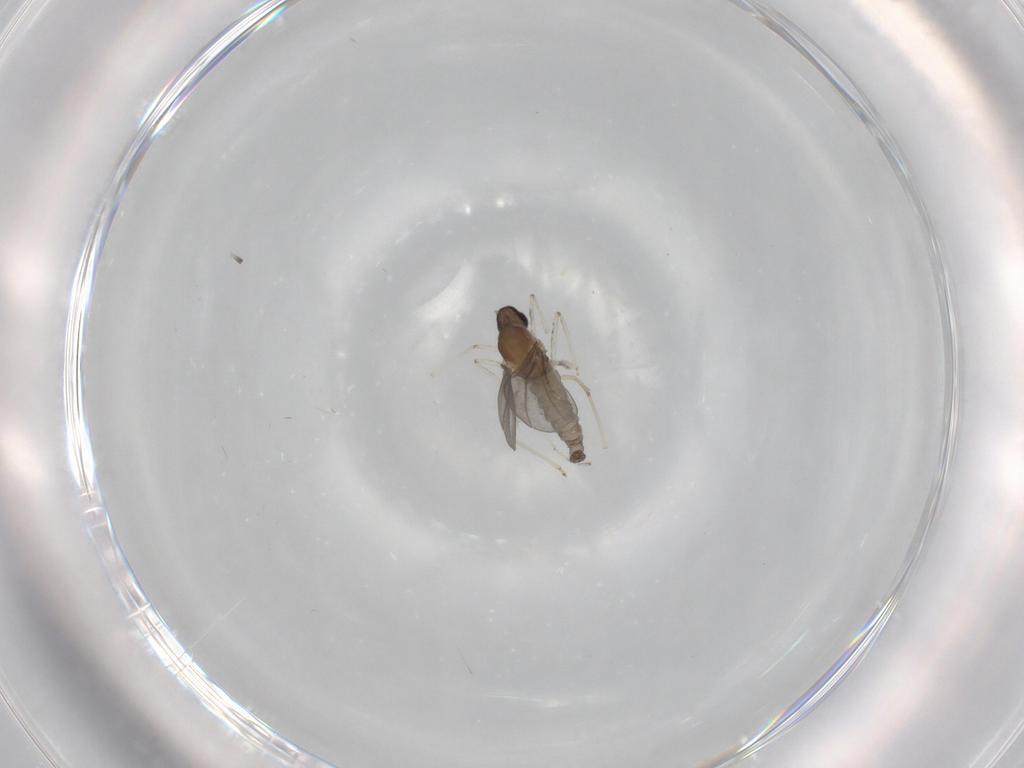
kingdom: Animalia
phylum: Arthropoda
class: Insecta
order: Diptera
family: Cecidomyiidae
